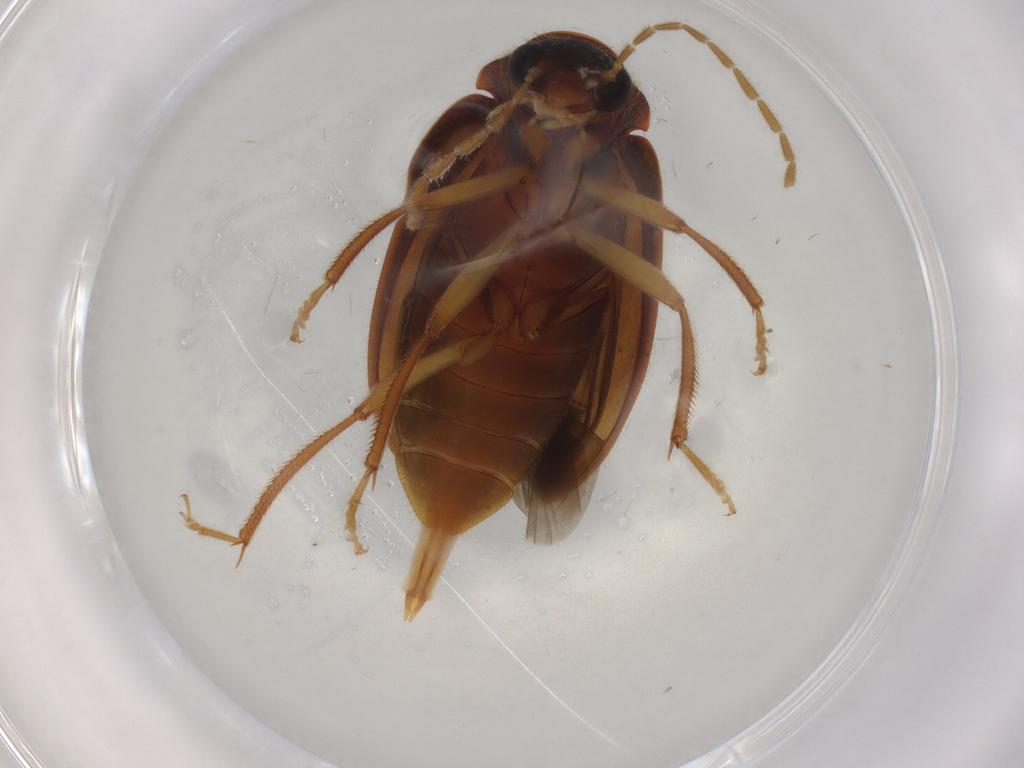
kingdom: Animalia
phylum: Arthropoda
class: Insecta
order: Coleoptera
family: Ptilodactylidae
